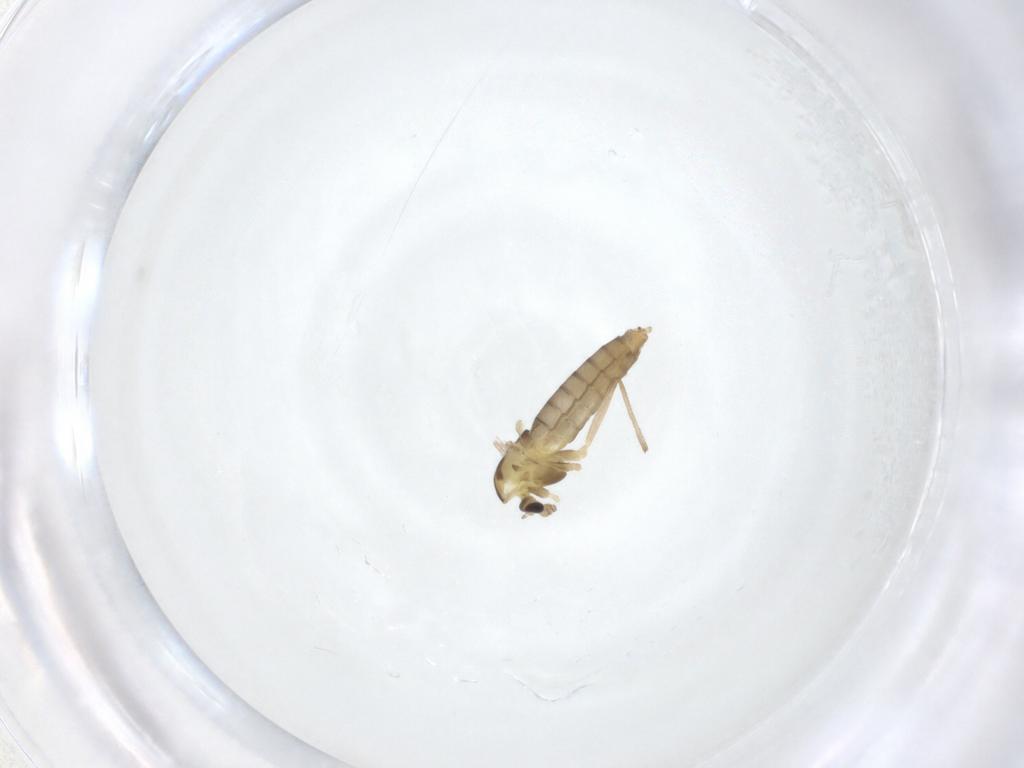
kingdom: Animalia
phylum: Arthropoda
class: Insecta
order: Diptera
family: Chironomidae
